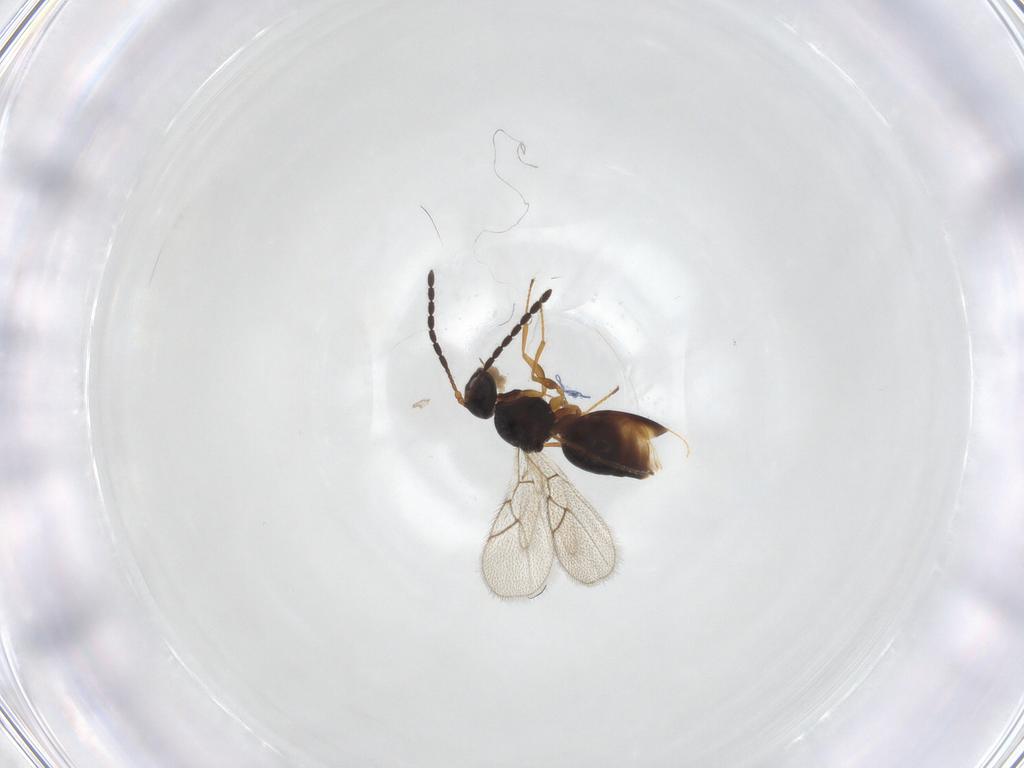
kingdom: Animalia
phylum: Arthropoda
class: Insecta
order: Hymenoptera
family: Figitidae
